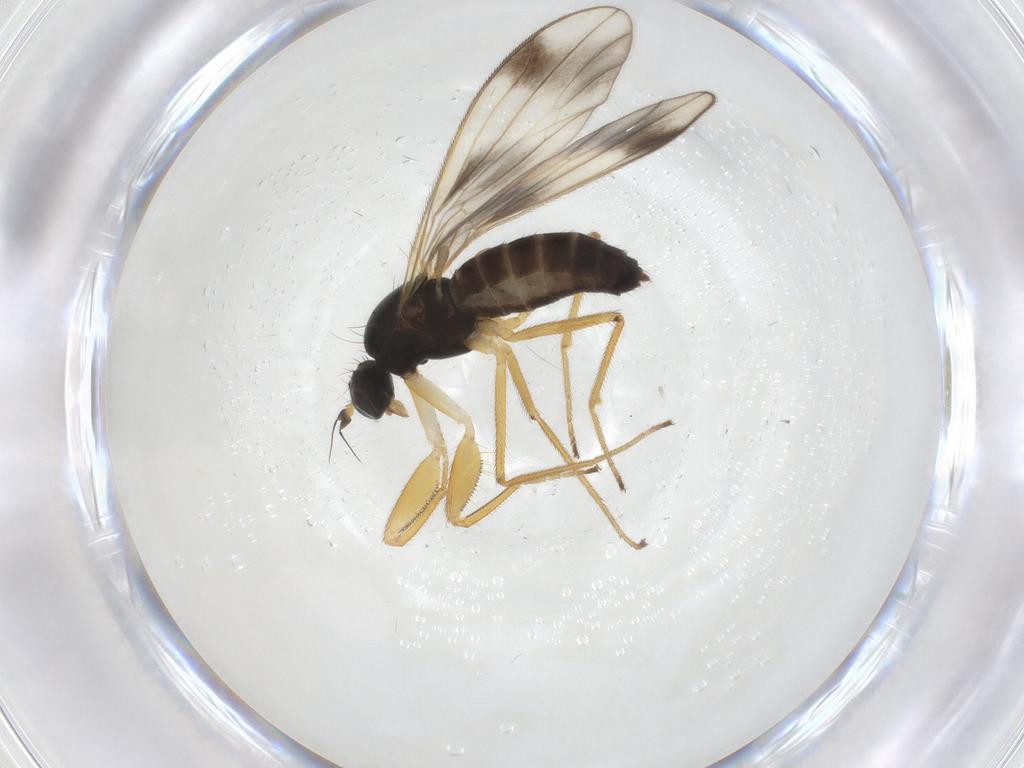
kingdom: Animalia
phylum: Arthropoda
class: Insecta
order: Diptera
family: Empididae
